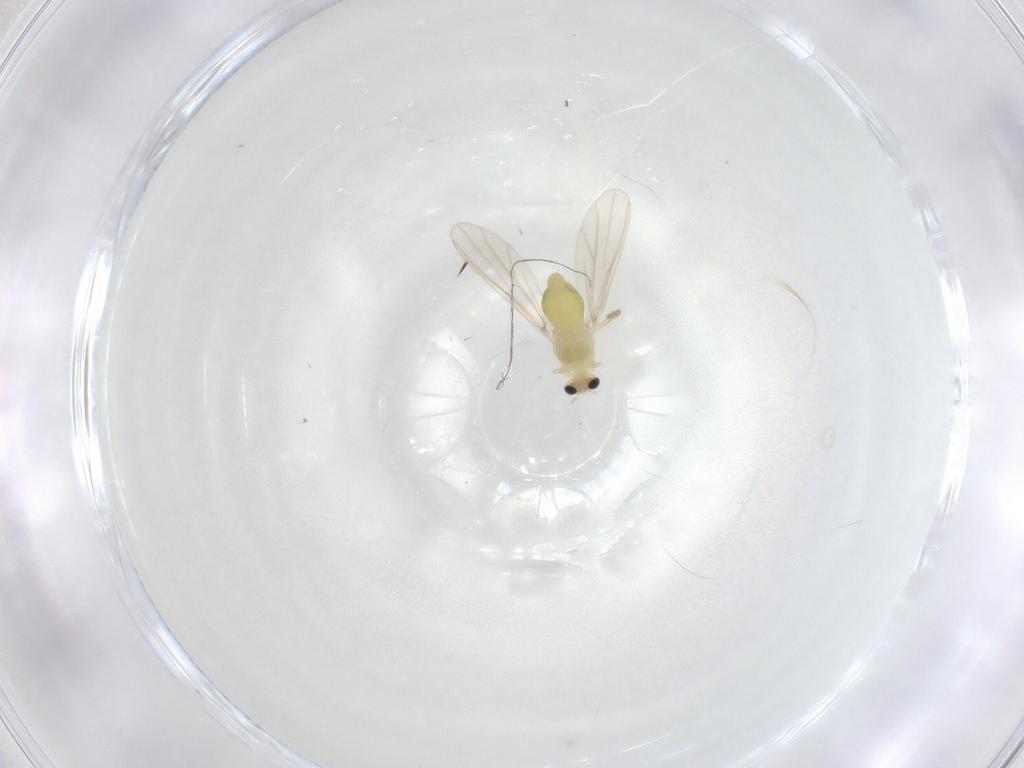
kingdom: Animalia
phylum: Arthropoda
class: Insecta
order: Diptera
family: Chironomidae
